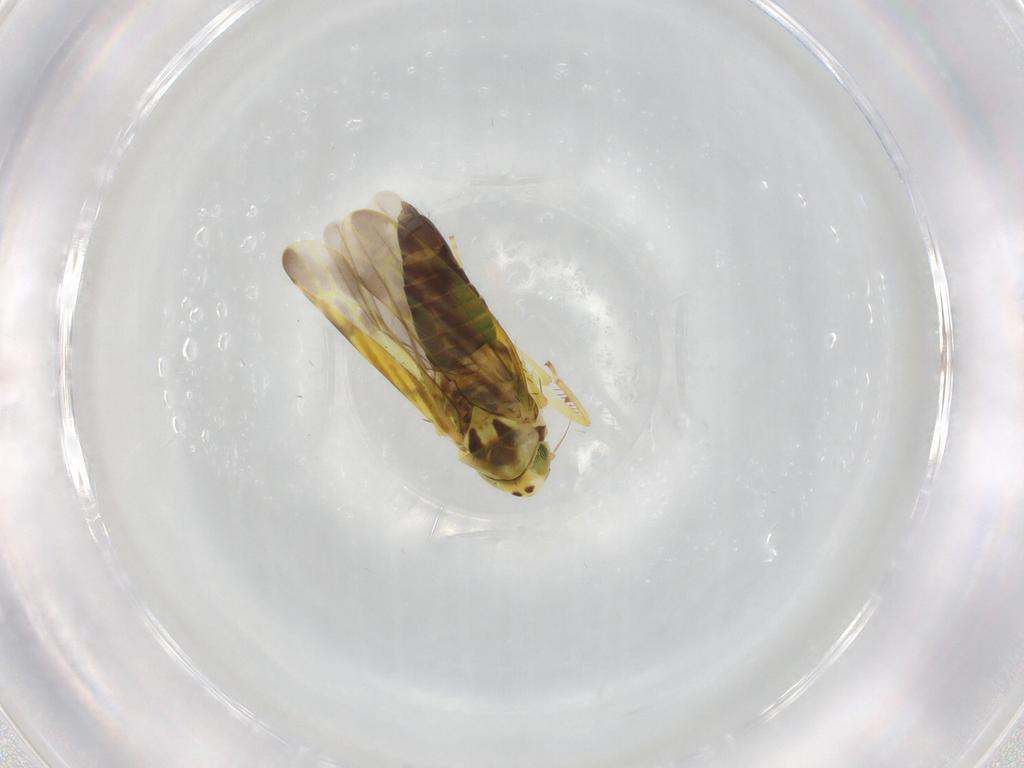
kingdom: Animalia
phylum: Arthropoda
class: Insecta
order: Hemiptera
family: Cicadellidae
